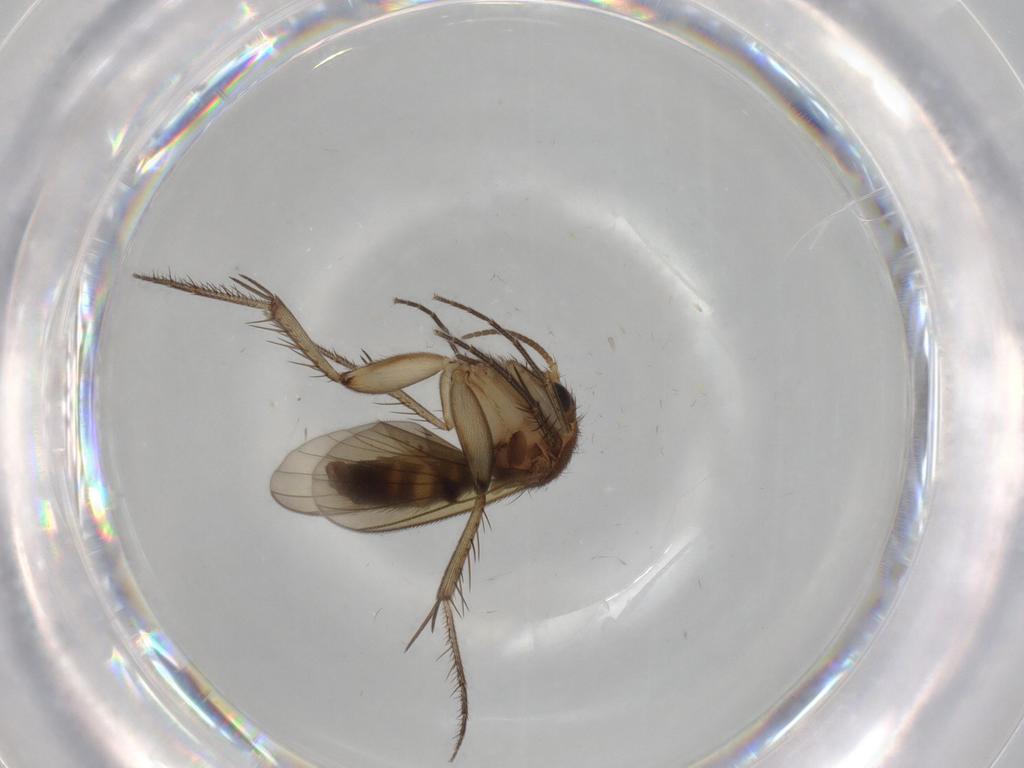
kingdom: Animalia
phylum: Arthropoda
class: Insecta
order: Diptera
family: Mycetophilidae
